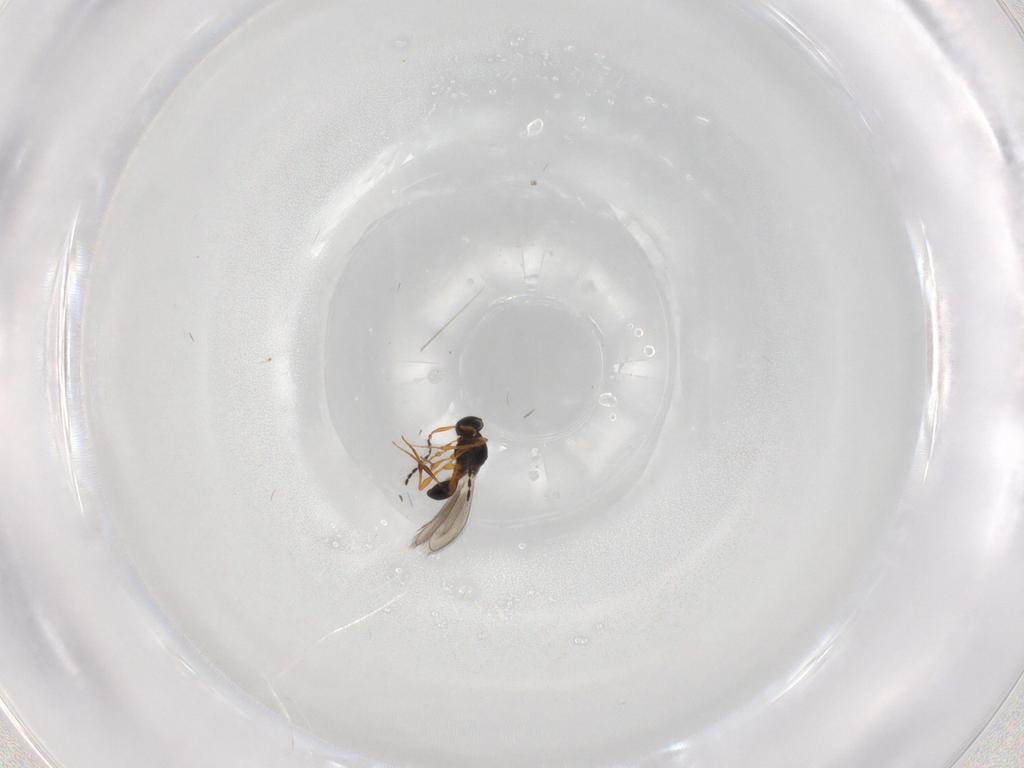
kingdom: Animalia
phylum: Arthropoda
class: Insecta
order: Hymenoptera
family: Platygastridae
